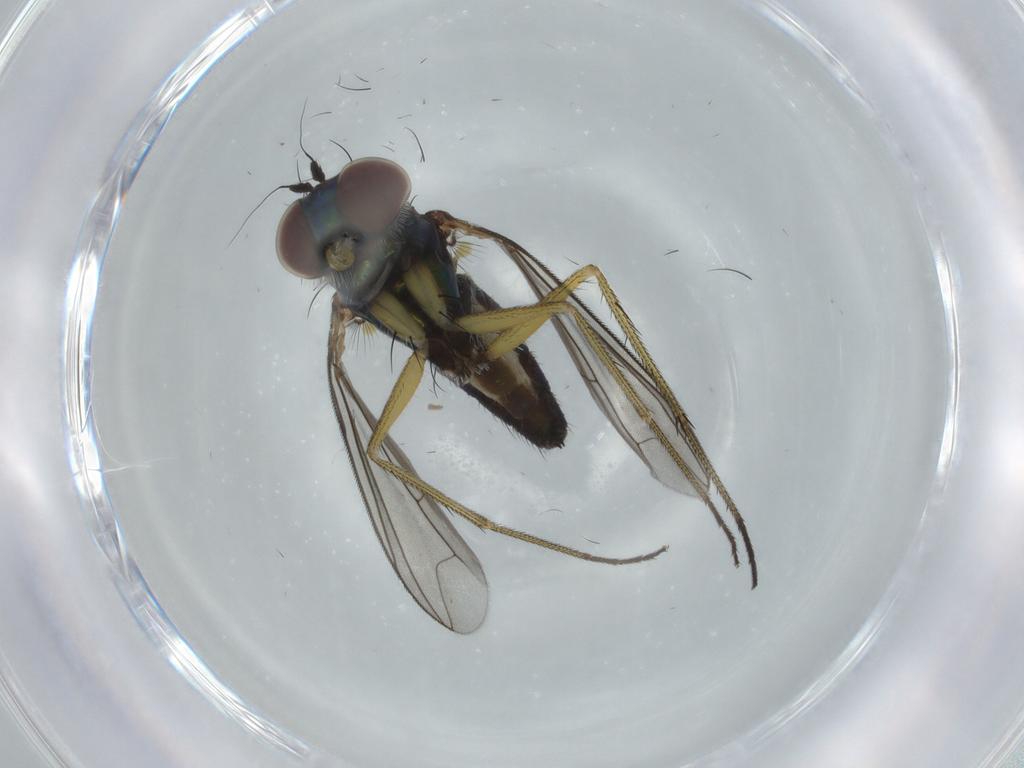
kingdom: Animalia
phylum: Arthropoda
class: Insecta
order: Diptera
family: Dolichopodidae
